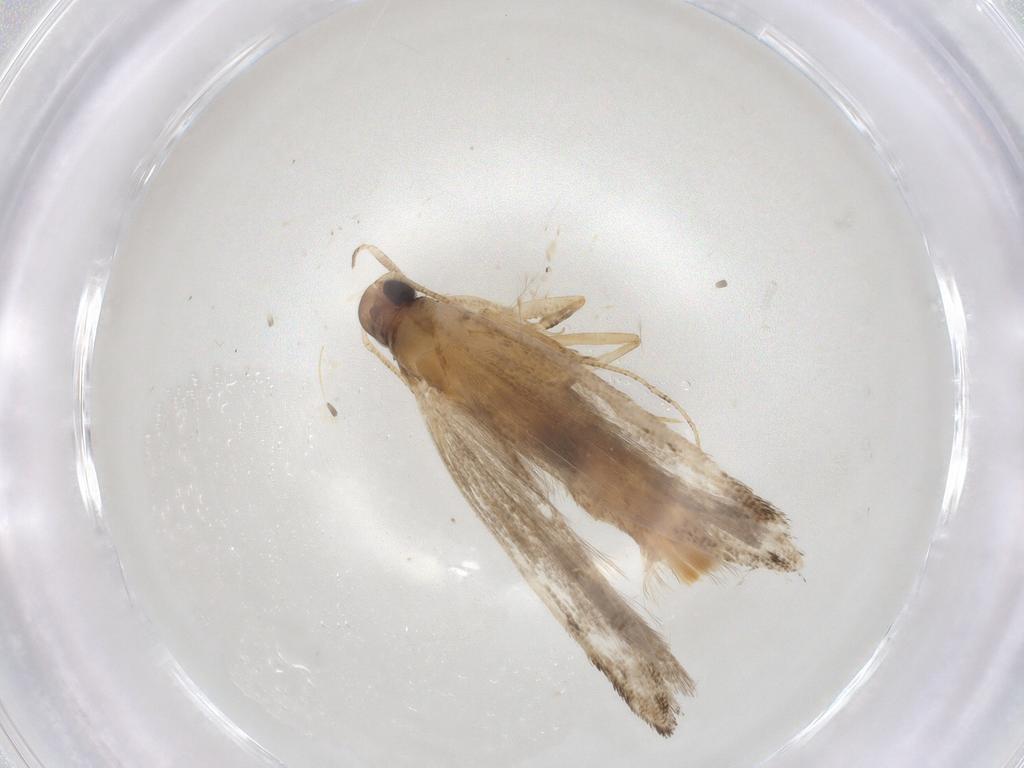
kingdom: Animalia
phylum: Arthropoda
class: Insecta
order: Lepidoptera
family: Crambidae
